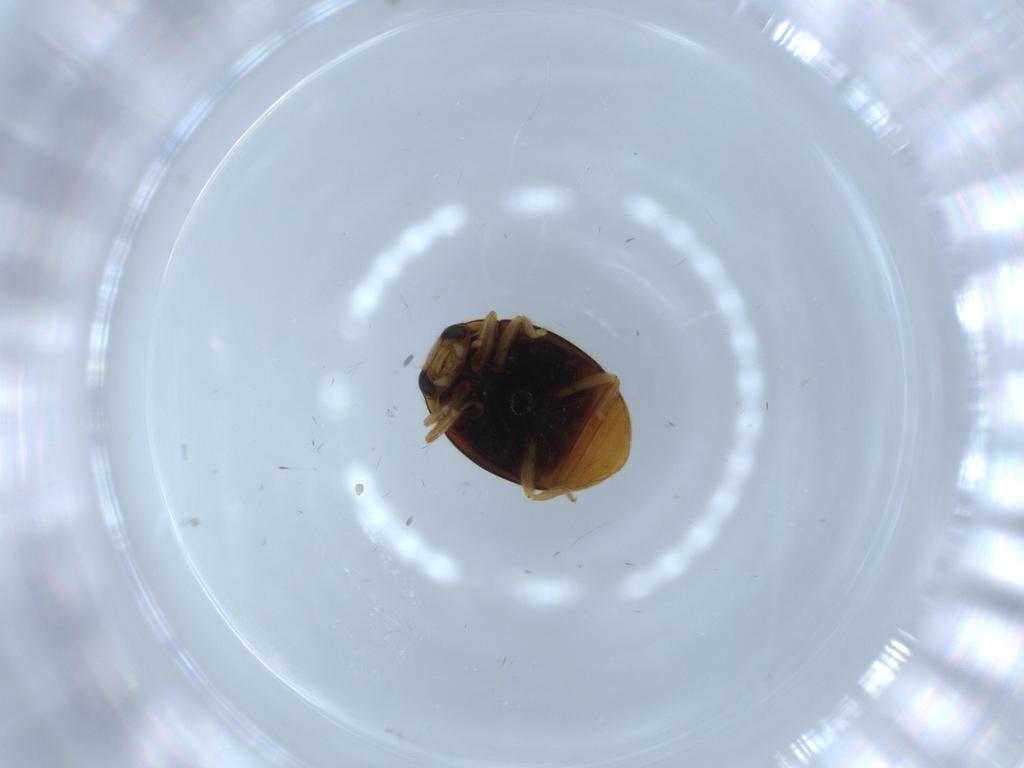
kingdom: Animalia
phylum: Arthropoda
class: Insecta
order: Coleoptera
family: Chrysomelidae
